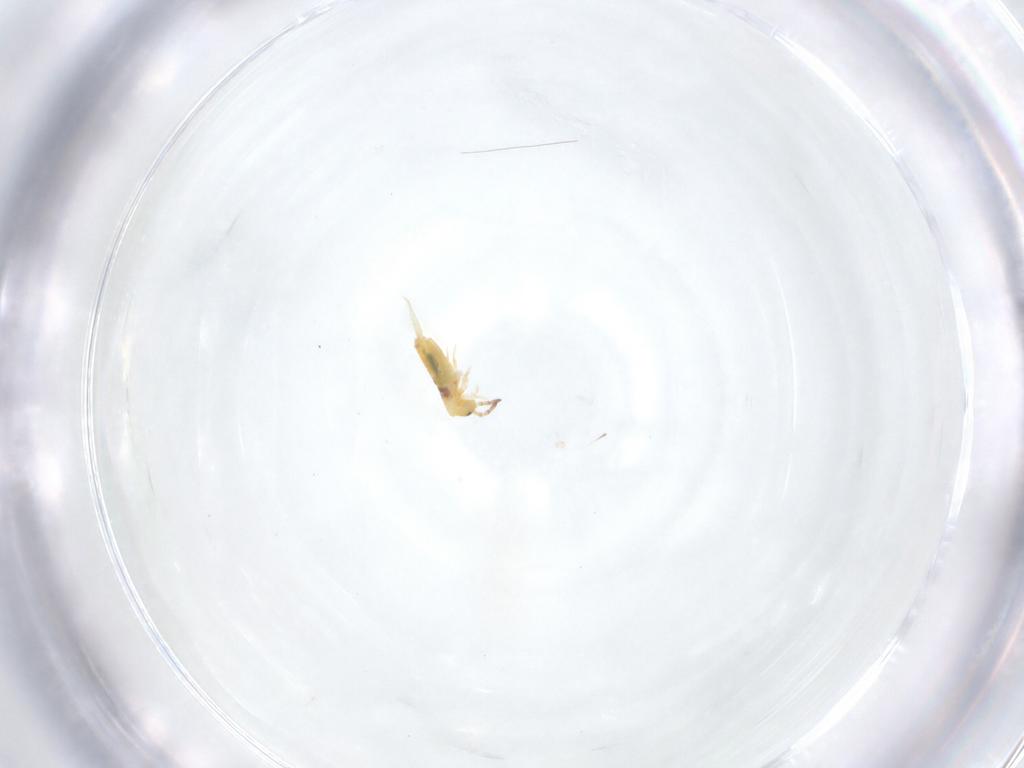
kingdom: Animalia
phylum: Arthropoda
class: Collembola
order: Entomobryomorpha
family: Entomobryidae
